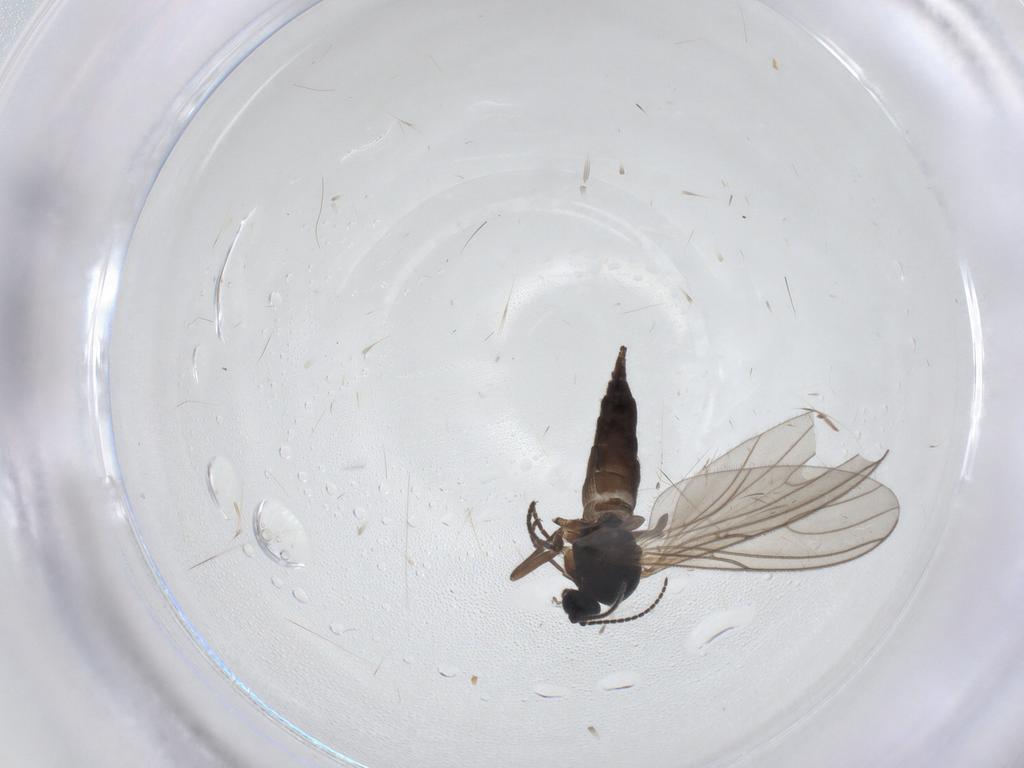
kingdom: Animalia
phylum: Arthropoda
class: Insecta
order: Diptera
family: Sciaridae
